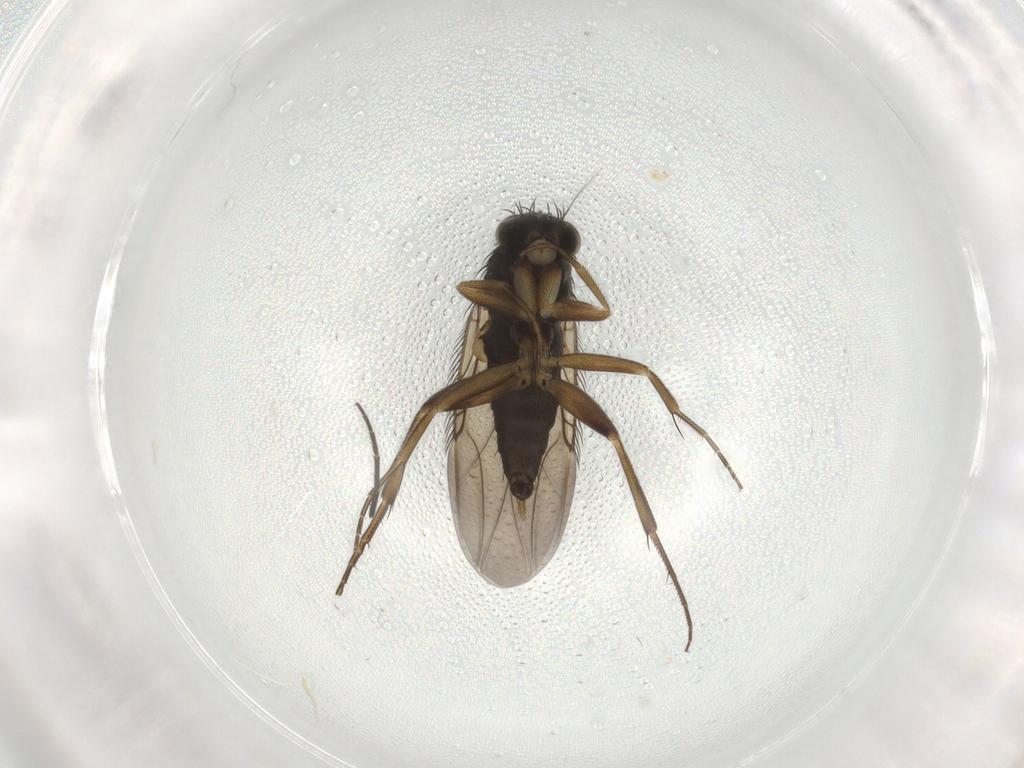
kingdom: Animalia
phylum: Arthropoda
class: Insecta
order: Diptera
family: Phoridae
